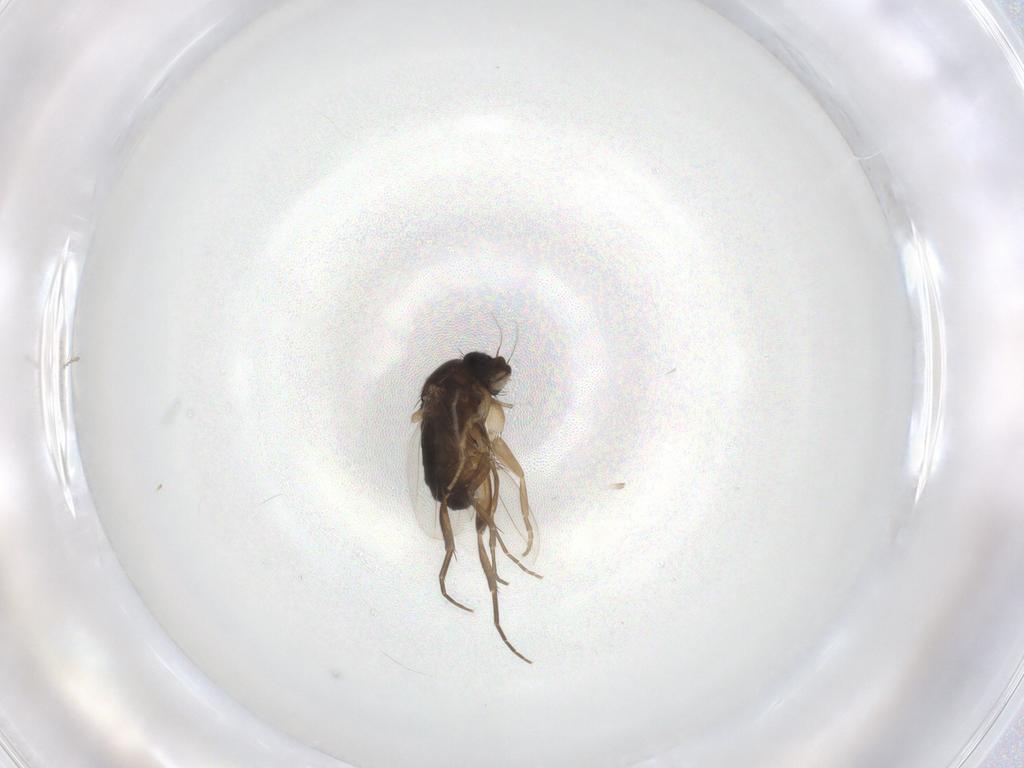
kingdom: Animalia
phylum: Arthropoda
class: Insecta
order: Diptera
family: Phoridae
